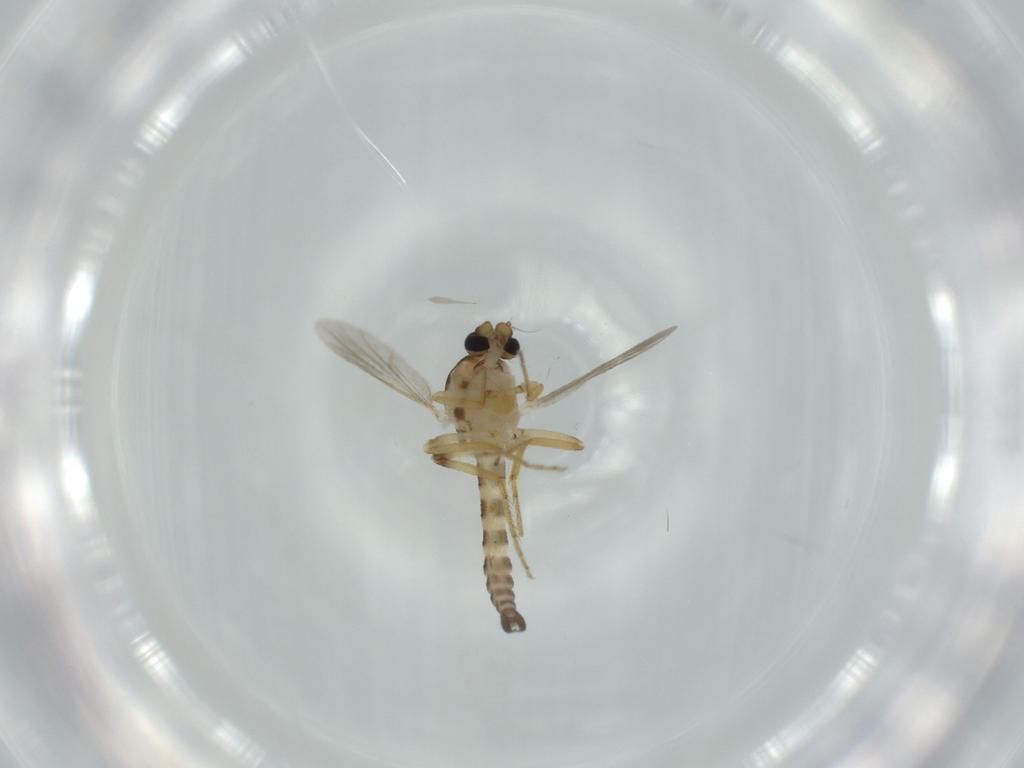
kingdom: Animalia
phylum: Arthropoda
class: Insecta
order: Diptera
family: Ceratopogonidae
